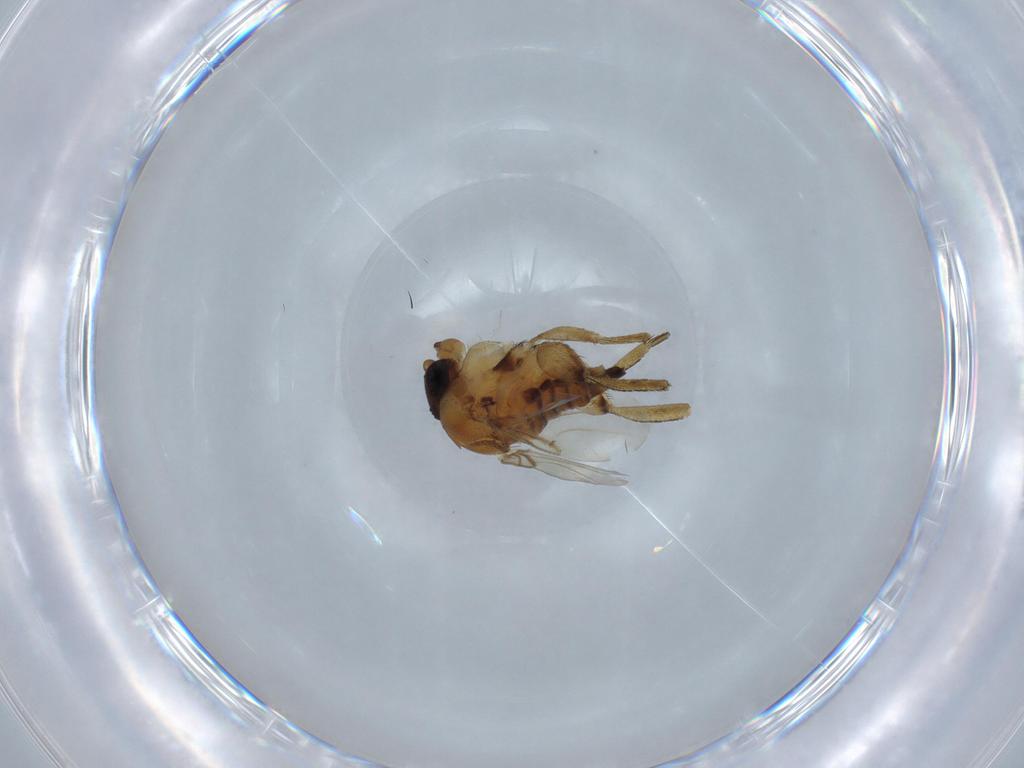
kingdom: Animalia
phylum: Arthropoda
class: Insecta
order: Diptera
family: Phoridae
